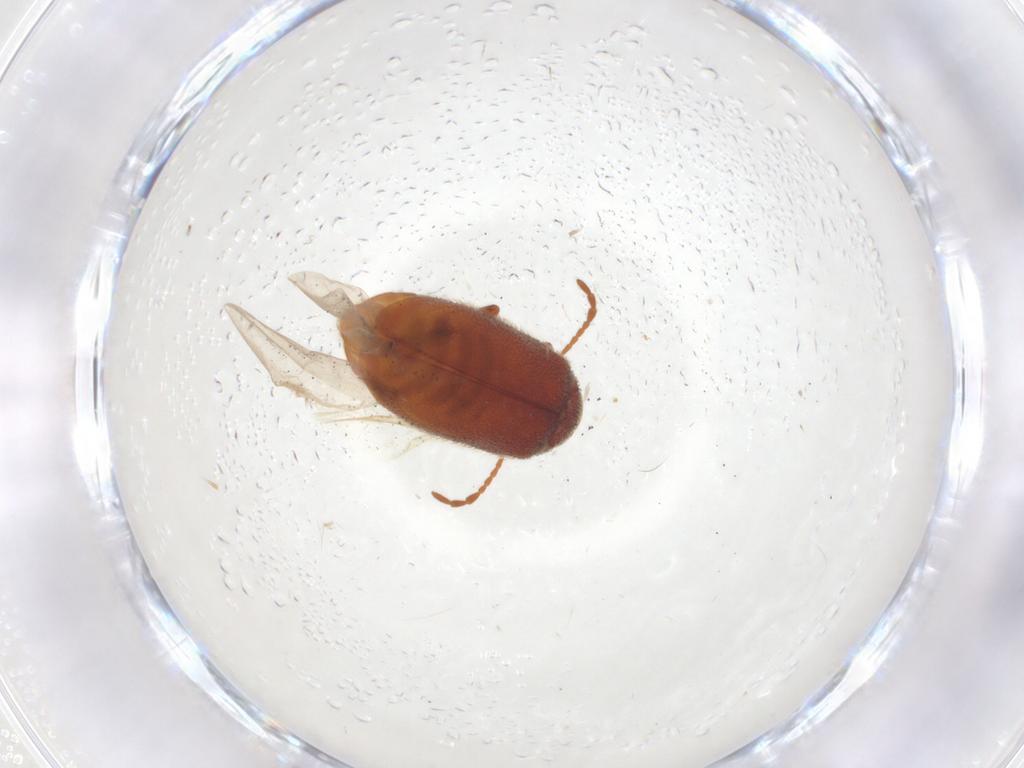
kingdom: Animalia
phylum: Arthropoda
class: Insecta
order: Coleoptera
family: Ptinidae
